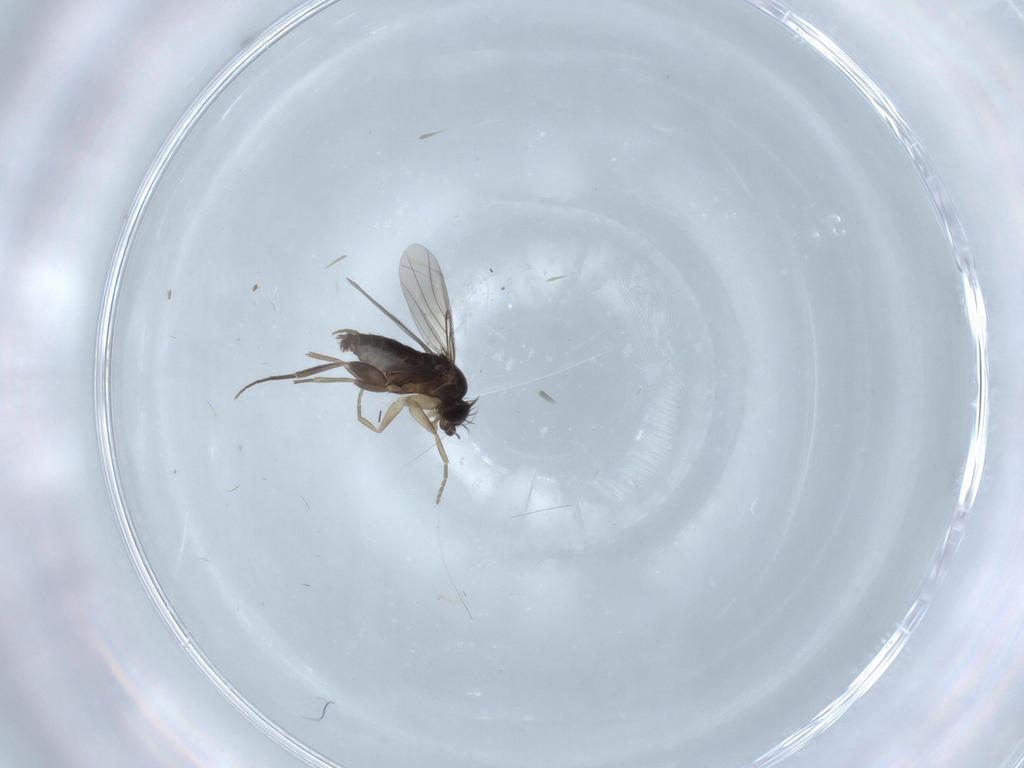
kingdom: Animalia
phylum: Arthropoda
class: Insecta
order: Diptera
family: Phoridae
